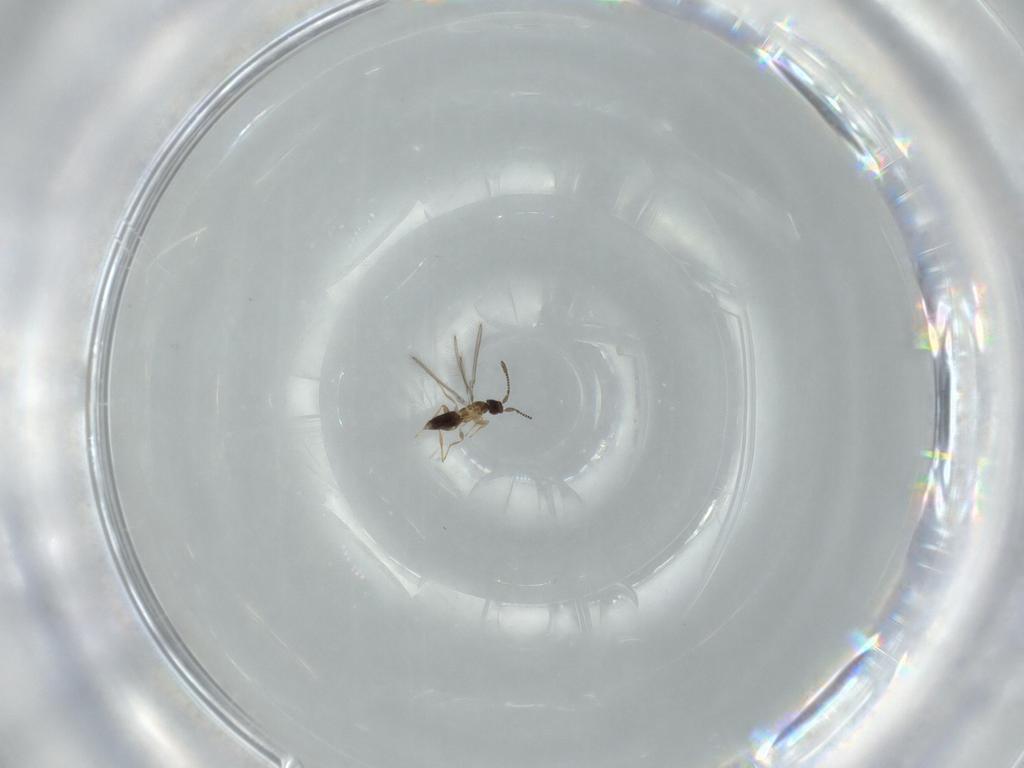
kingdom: Animalia
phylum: Arthropoda
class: Insecta
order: Hymenoptera
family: Mymaridae
